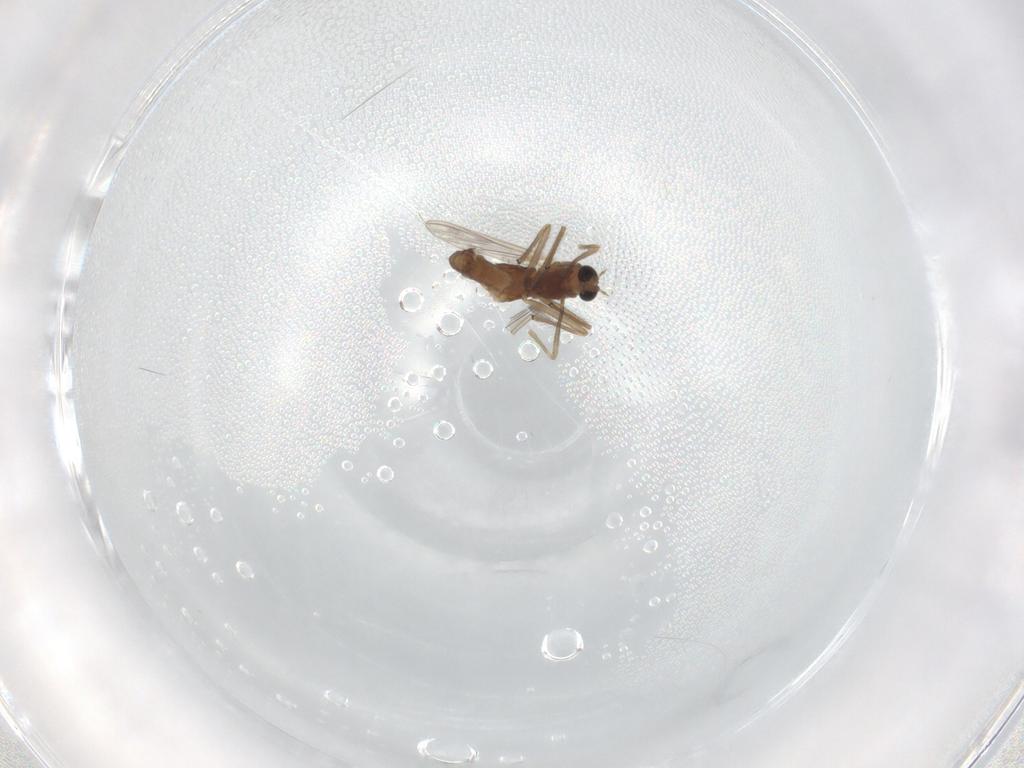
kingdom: Animalia
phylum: Arthropoda
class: Insecta
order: Diptera
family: Chironomidae
